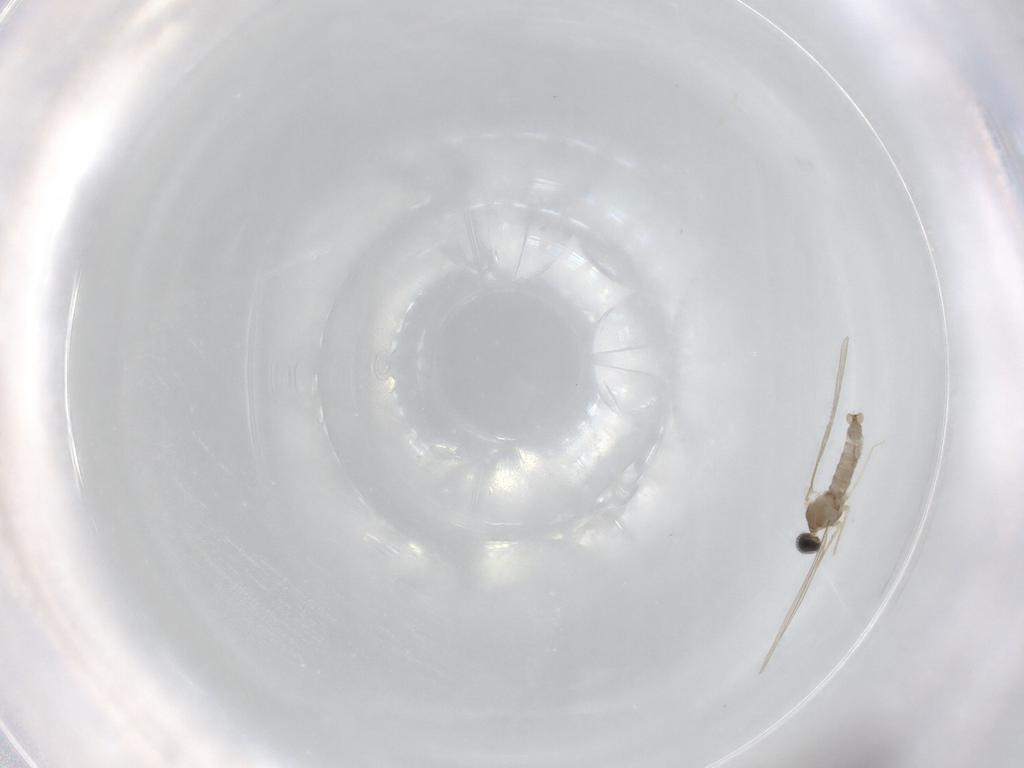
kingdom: Animalia
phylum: Arthropoda
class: Insecta
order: Diptera
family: Cecidomyiidae
